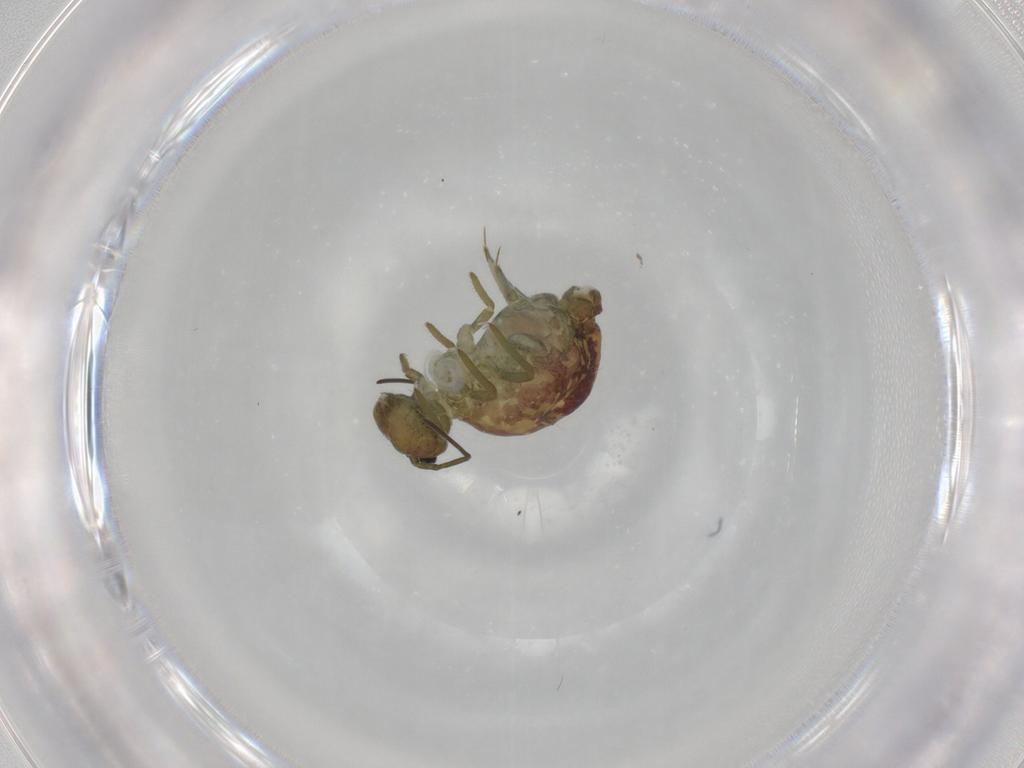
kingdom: Animalia
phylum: Arthropoda
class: Collembola
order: Symphypleona
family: Sminthuridae
